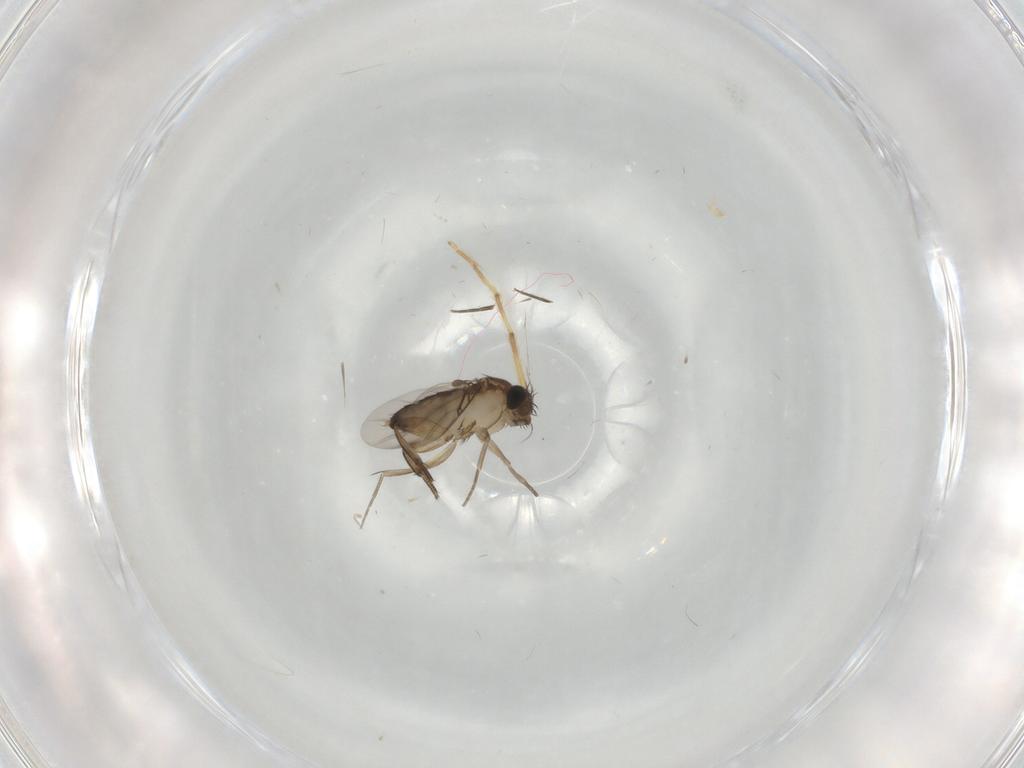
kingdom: Animalia
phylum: Arthropoda
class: Insecta
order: Diptera
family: Phoridae
